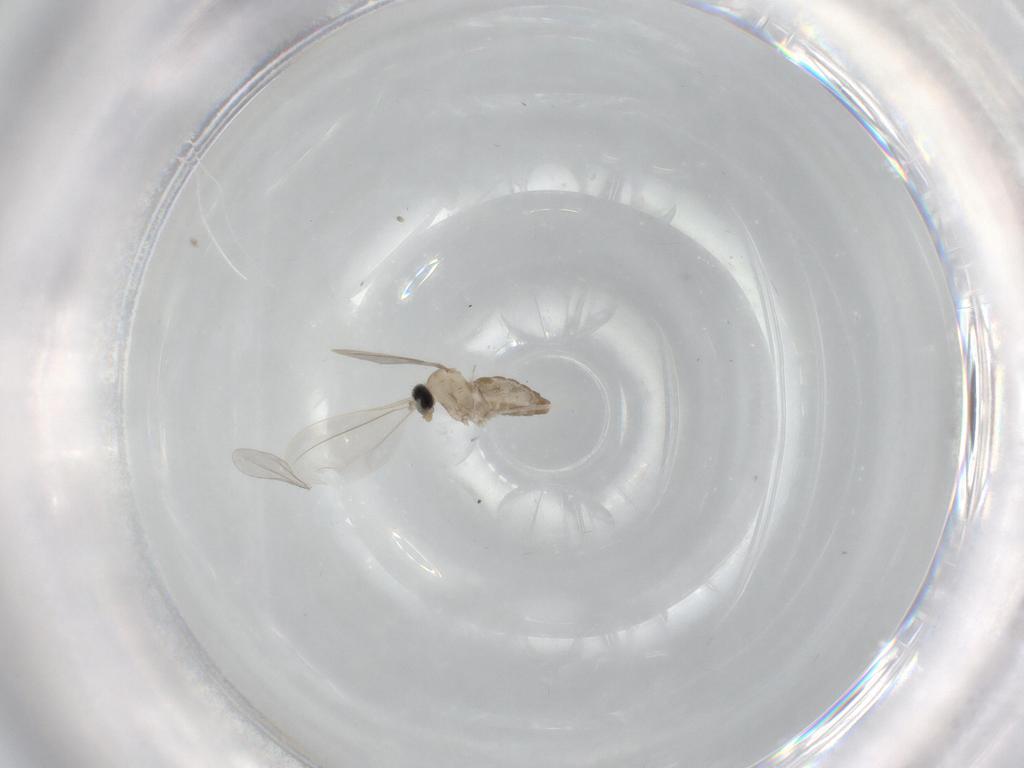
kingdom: Animalia
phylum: Arthropoda
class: Insecta
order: Diptera
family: Cecidomyiidae
